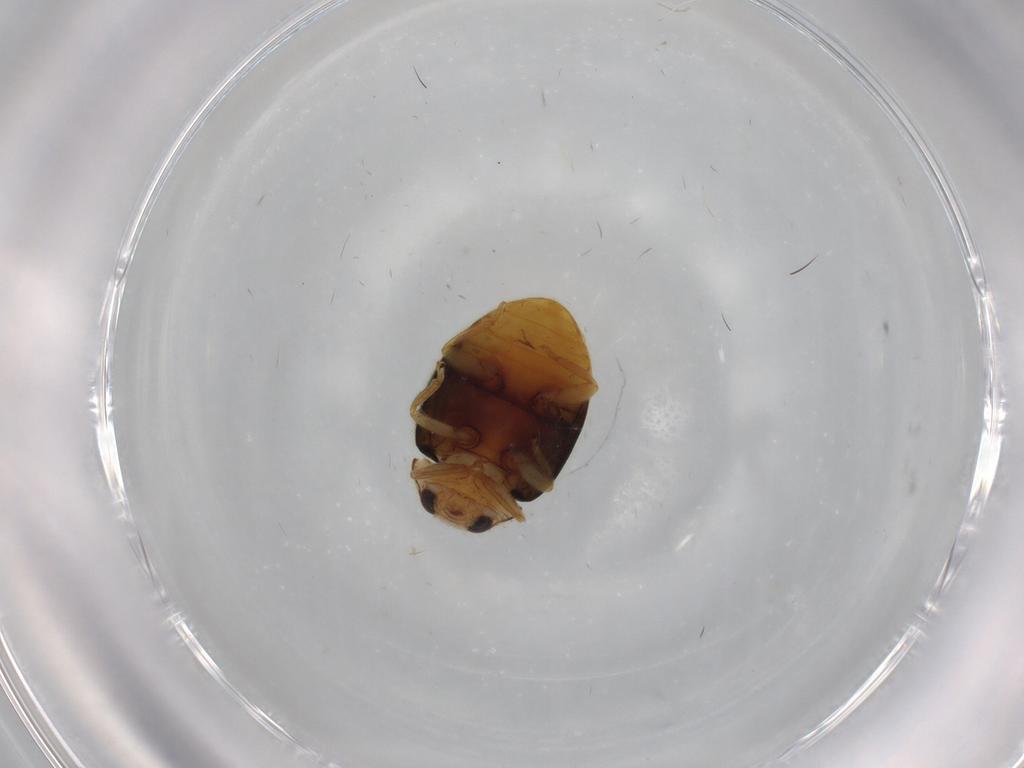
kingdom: Animalia
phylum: Arthropoda
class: Insecta
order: Coleoptera
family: Coccinellidae
